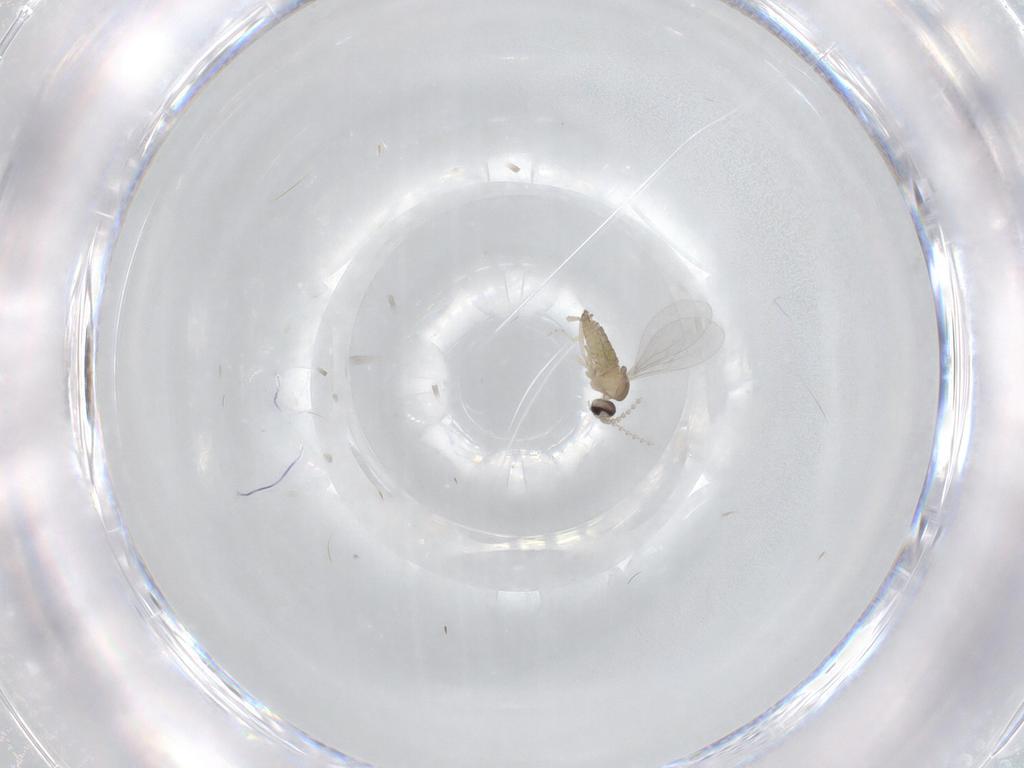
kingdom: Animalia
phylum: Arthropoda
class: Insecta
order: Diptera
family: Cecidomyiidae
